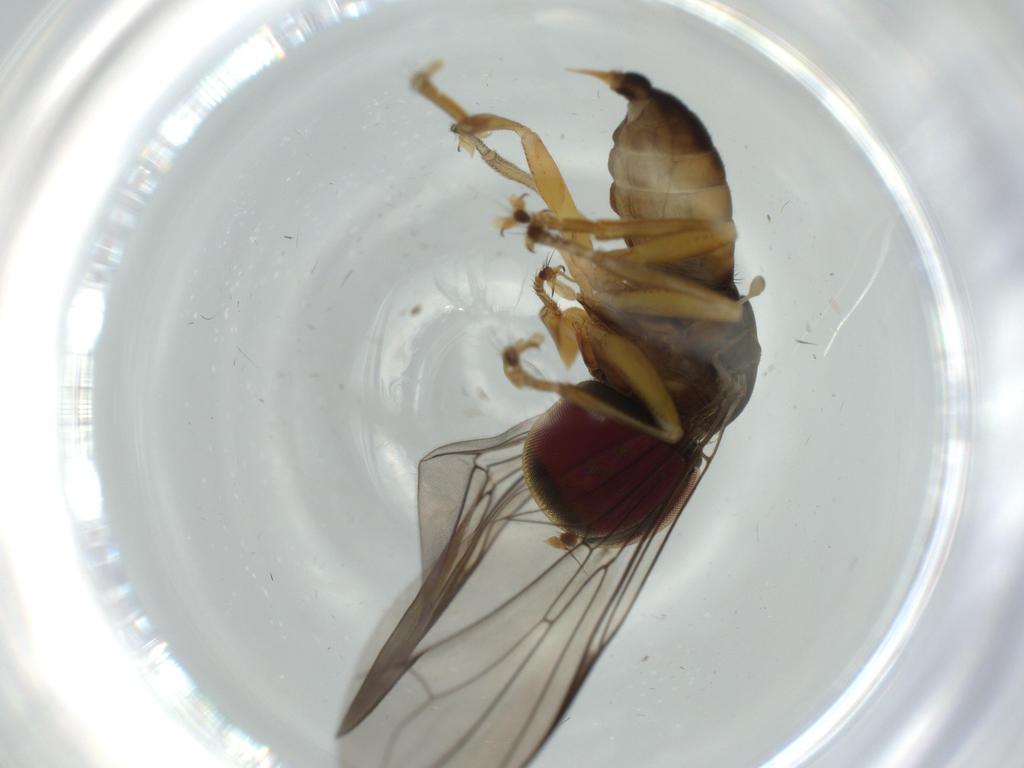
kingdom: Animalia
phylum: Arthropoda
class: Insecta
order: Diptera
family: Pipunculidae
